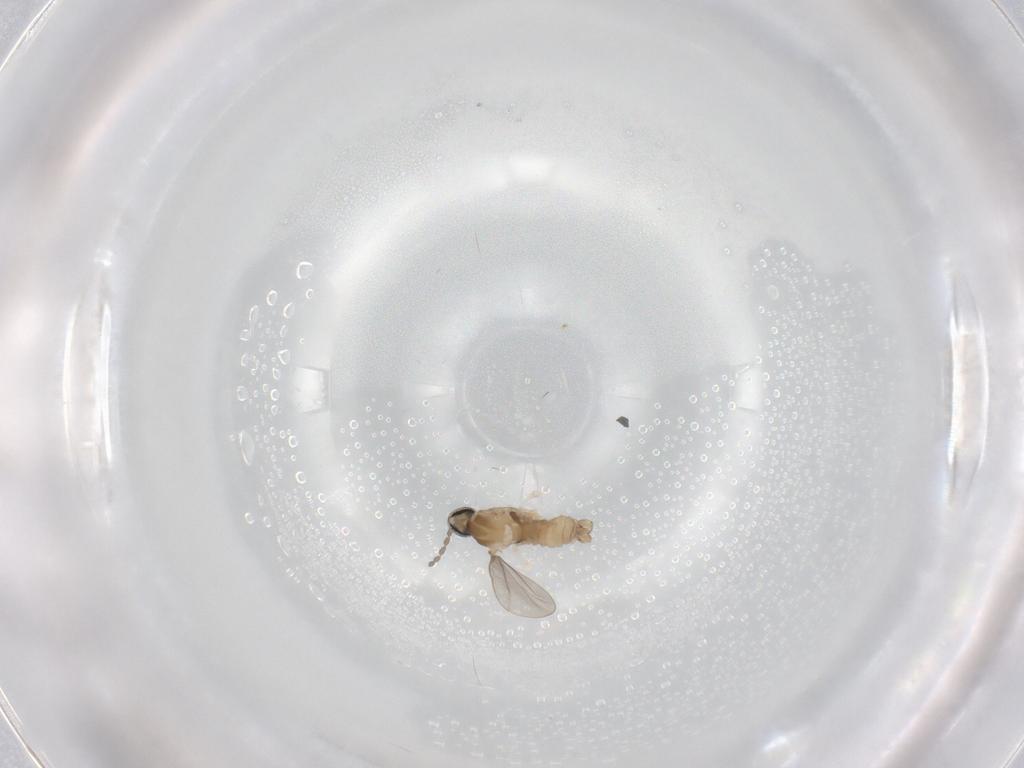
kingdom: Animalia
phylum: Arthropoda
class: Insecta
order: Diptera
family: Cecidomyiidae
